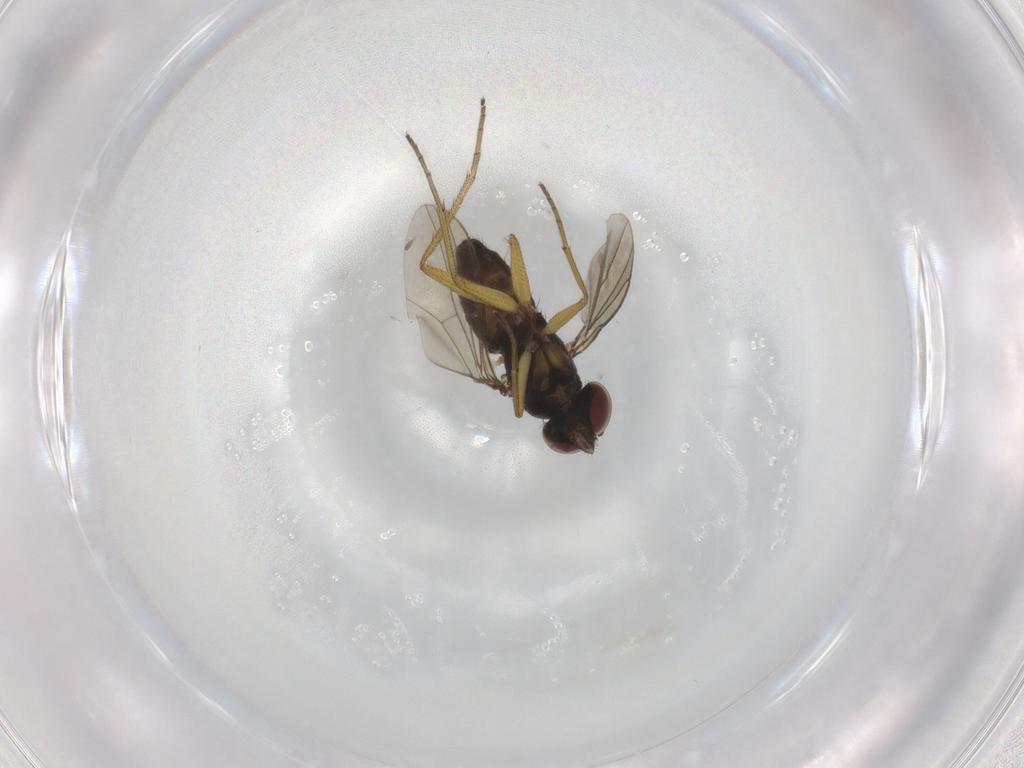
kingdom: Animalia
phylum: Arthropoda
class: Insecta
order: Diptera
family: Dolichopodidae
